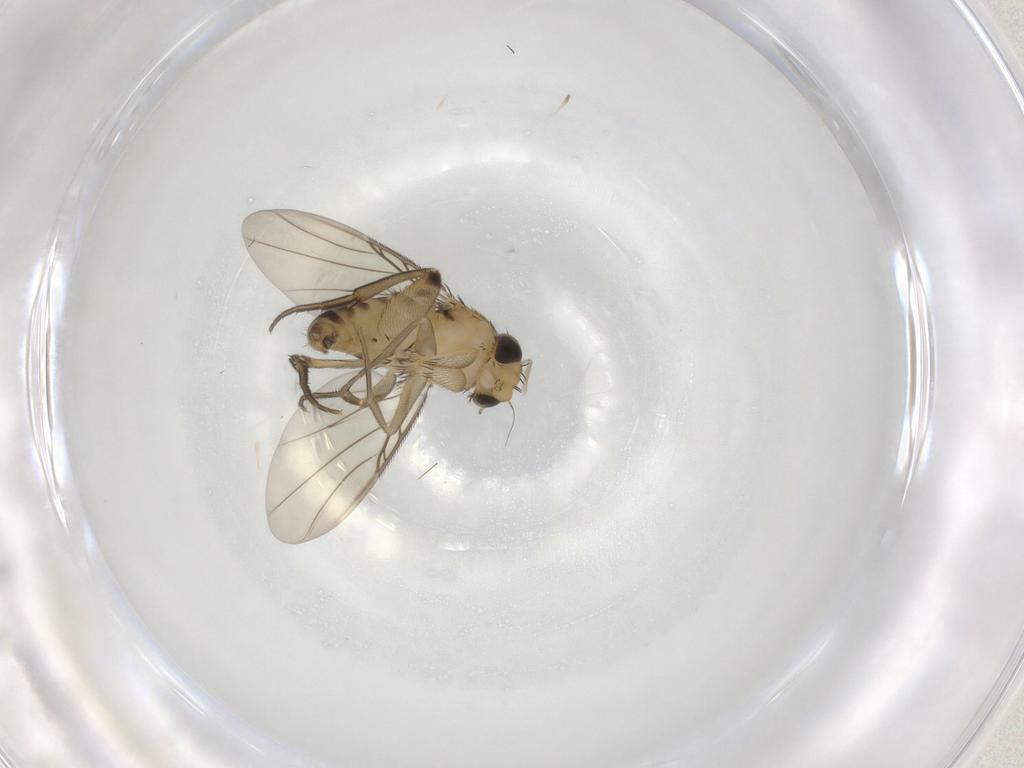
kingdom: Animalia
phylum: Arthropoda
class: Insecta
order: Diptera
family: Phoridae
